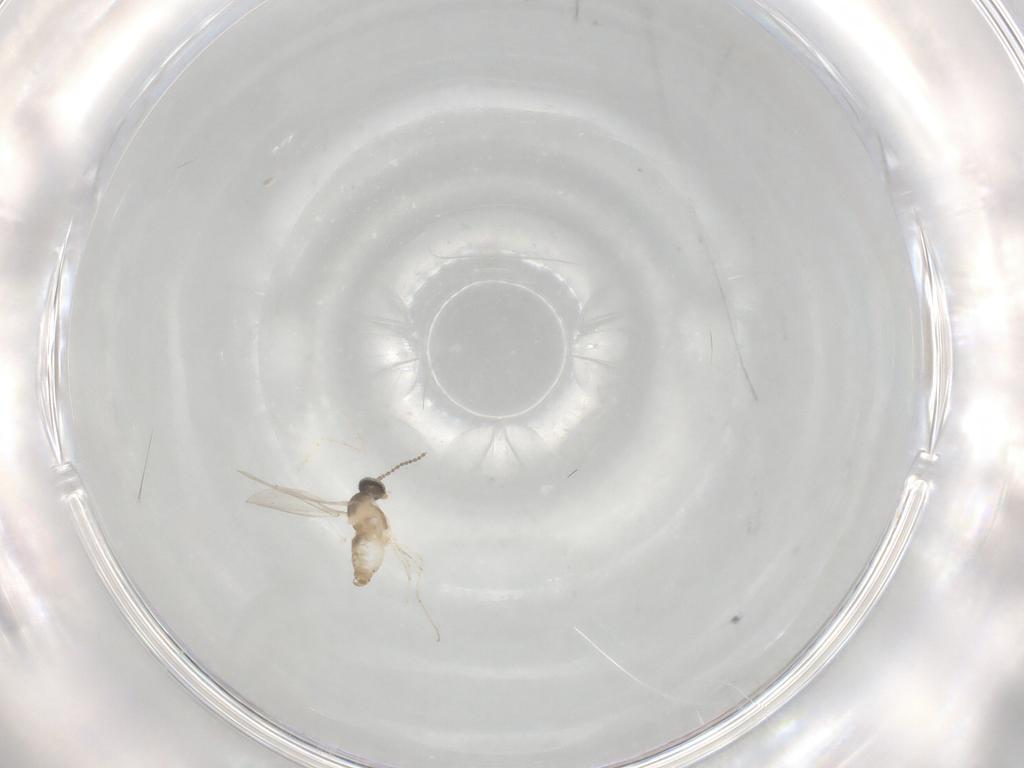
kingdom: Animalia
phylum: Arthropoda
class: Insecta
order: Diptera
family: Cecidomyiidae
